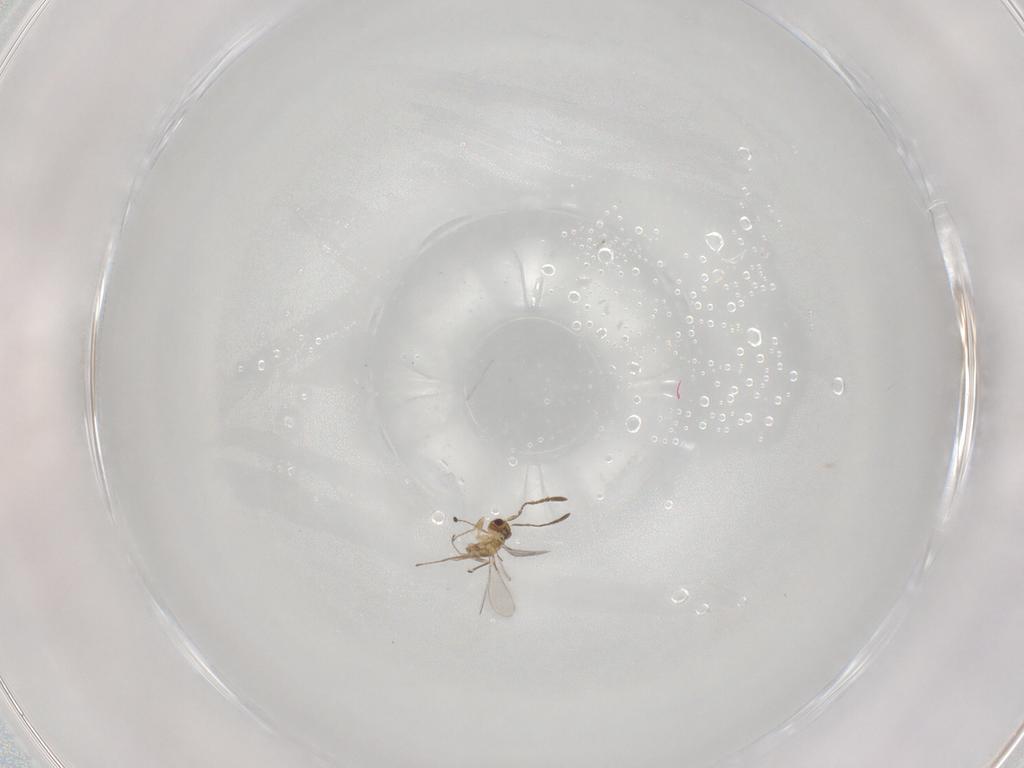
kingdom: Animalia
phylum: Arthropoda
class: Insecta
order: Hymenoptera
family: Mymaridae
